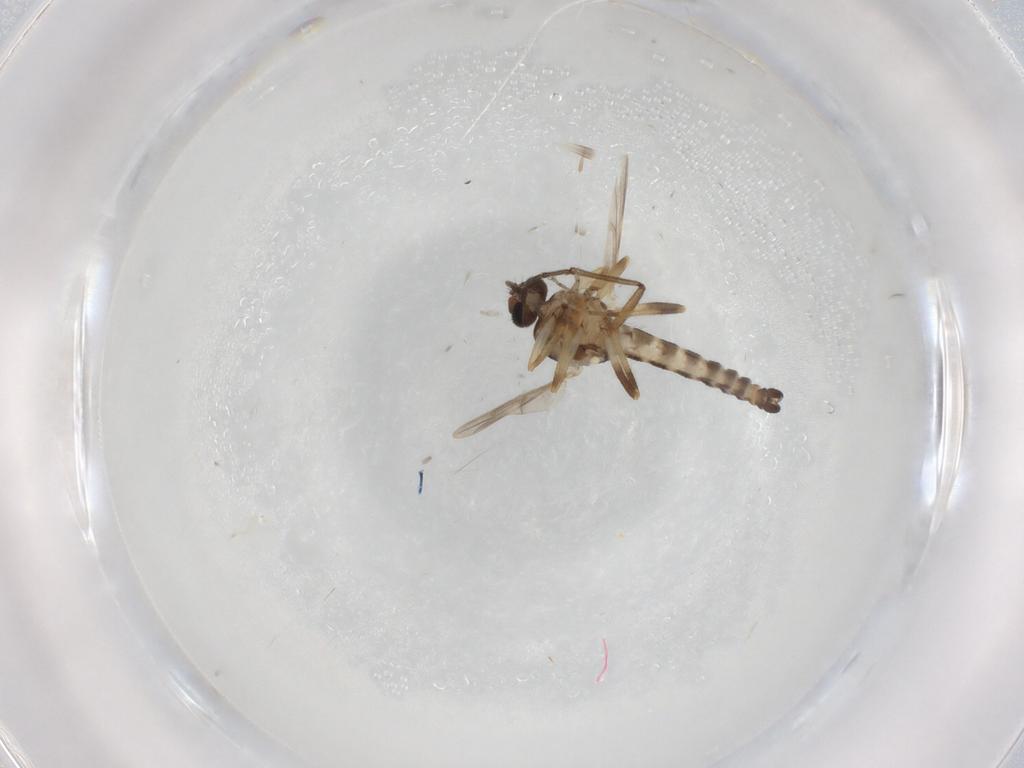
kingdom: Animalia
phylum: Arthropoda
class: Insecta
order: Diptera
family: Ceratopogonidae
